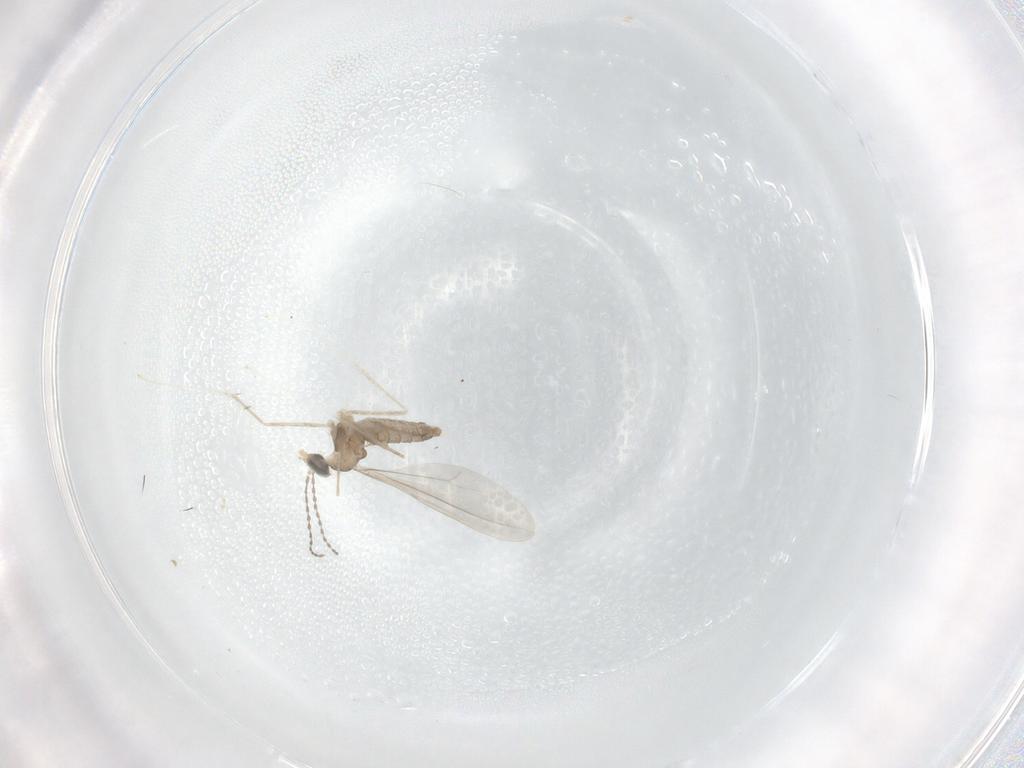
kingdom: Animalia
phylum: Arthropoda
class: Insecta
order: Diptera
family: Cecidomyiidae
